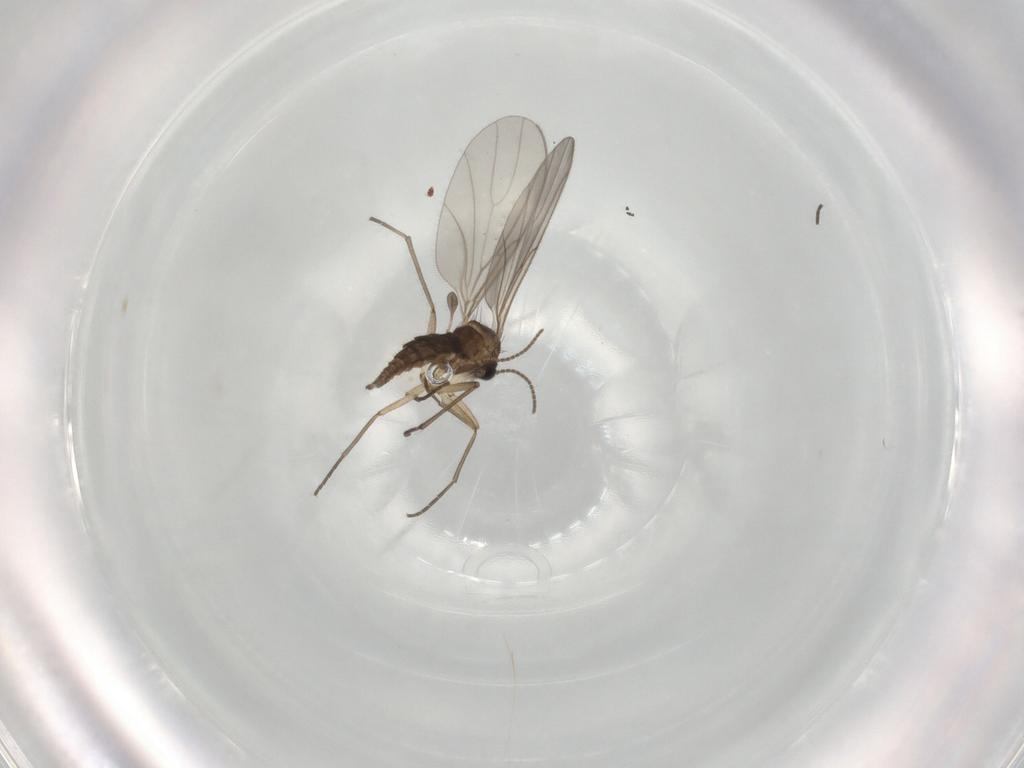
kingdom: Animalia
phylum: Arthropoda
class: Insecta
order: Diptera
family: Sciaridae
